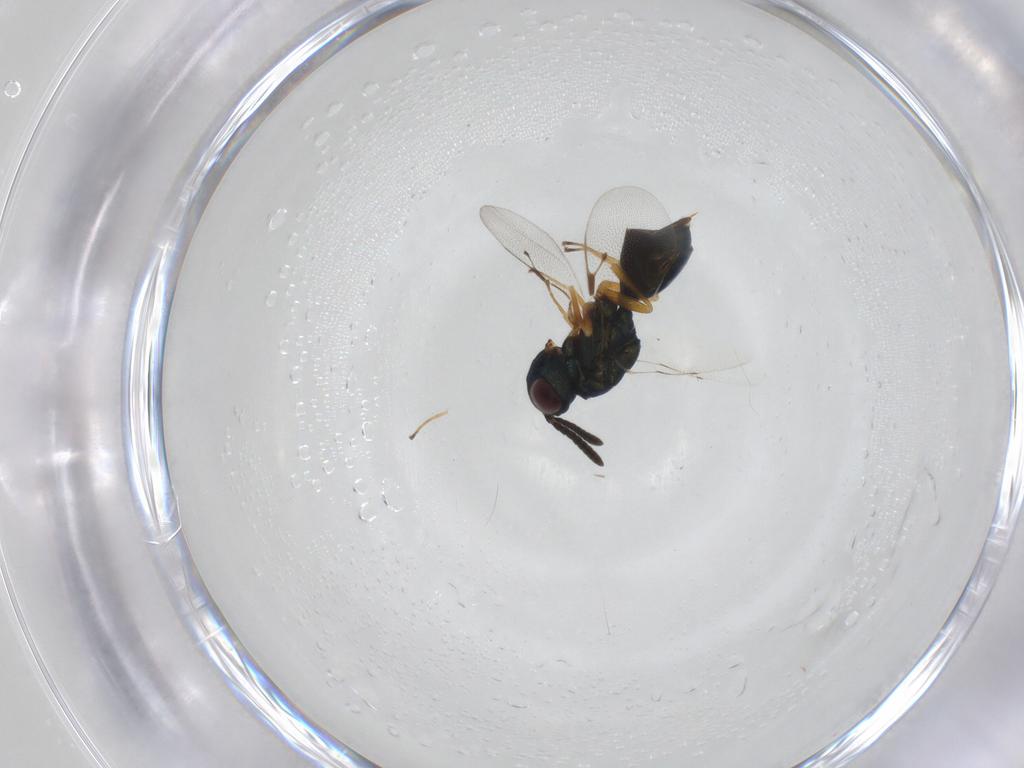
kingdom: Animalia
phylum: Arthropoda
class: Insecta
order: Hymenoptera
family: Pteromalidae
